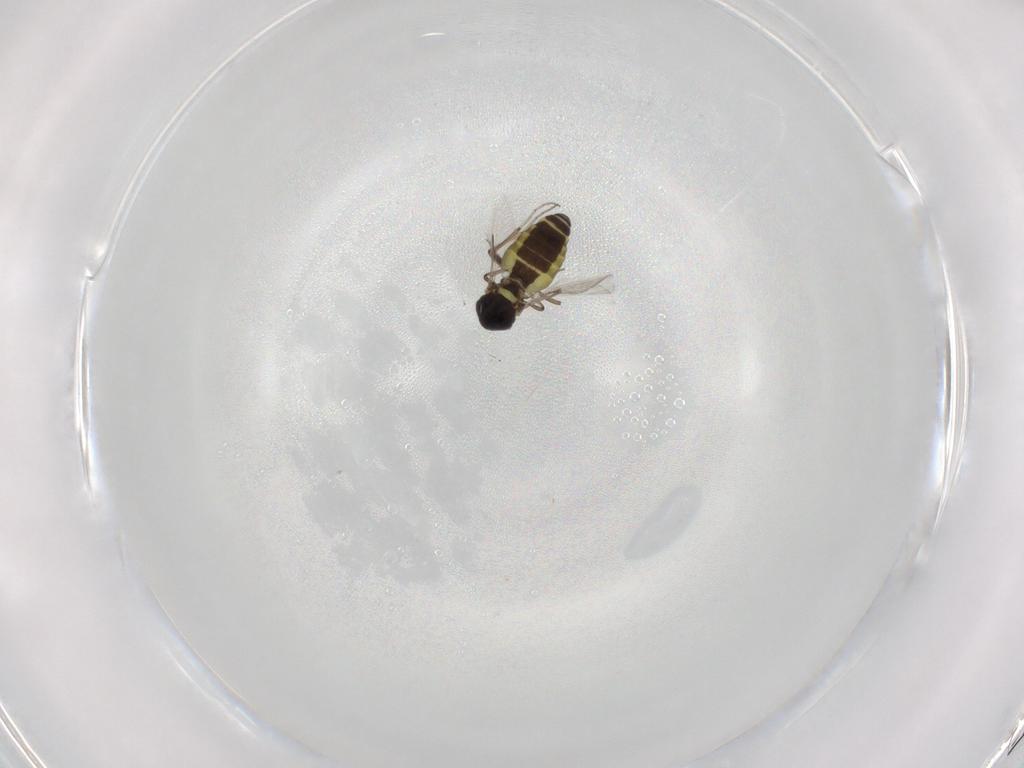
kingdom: Animalia
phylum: Arthropoda
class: Insecta
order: Diptera
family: Ceratopogonidae
